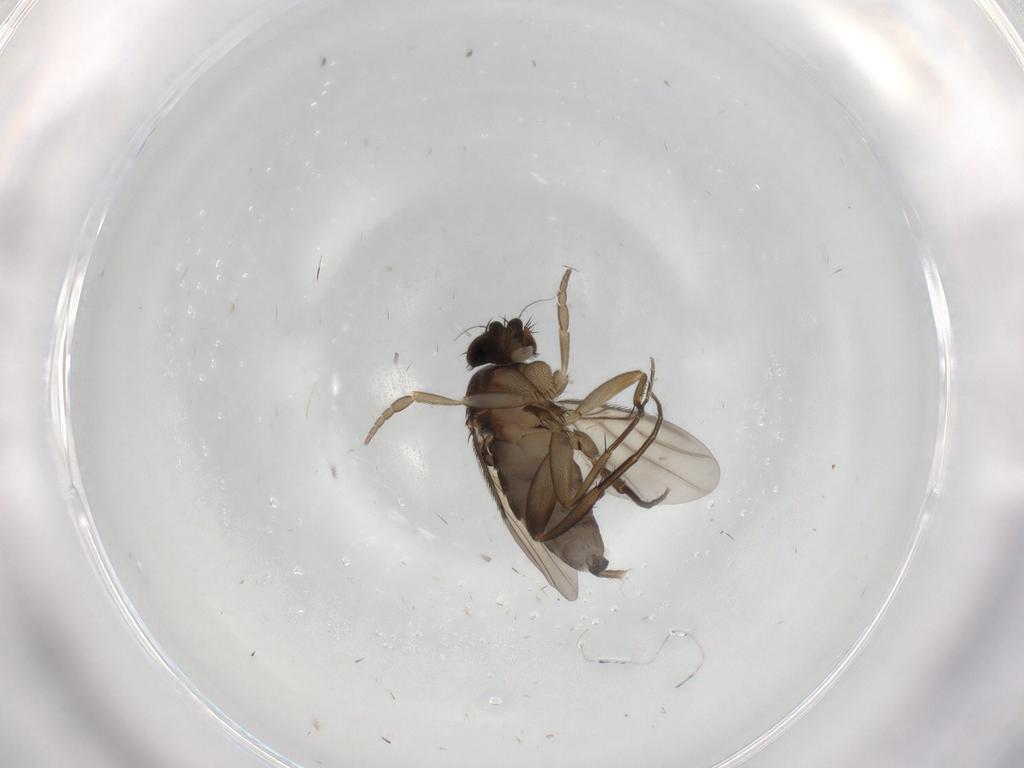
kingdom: Animalia
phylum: Arthropoda
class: Insecta
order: Diptera
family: Phoridae
